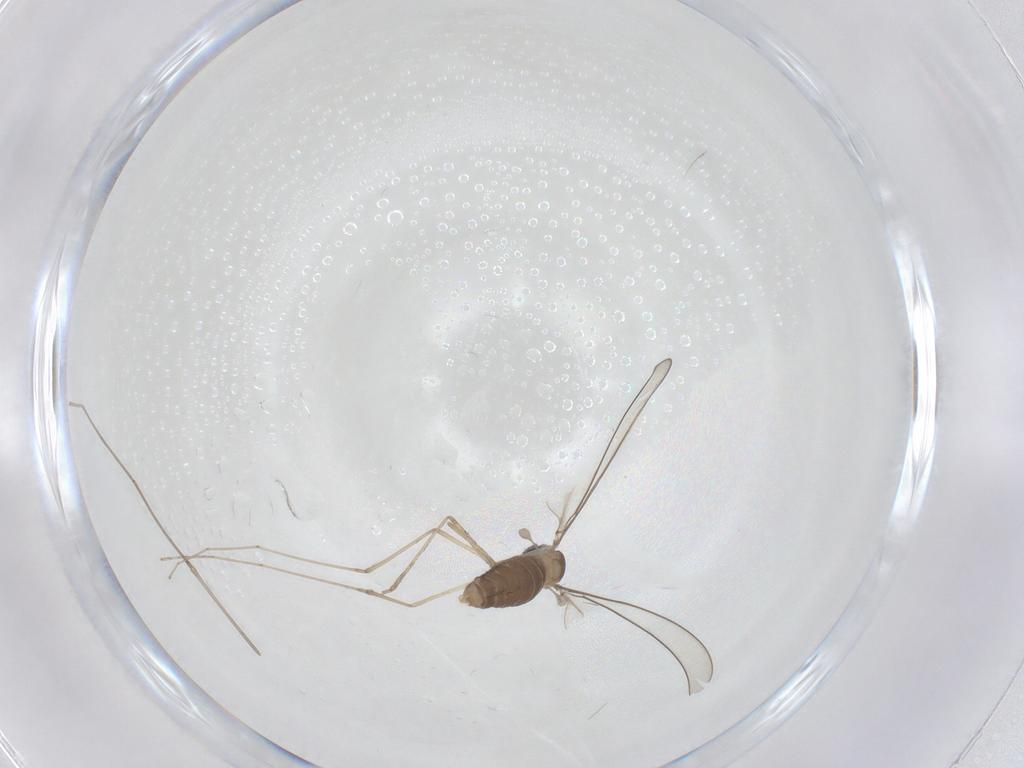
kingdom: Animalia
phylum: Arthropoda
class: Insecta
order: Diptera
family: Cecidomyiidae
